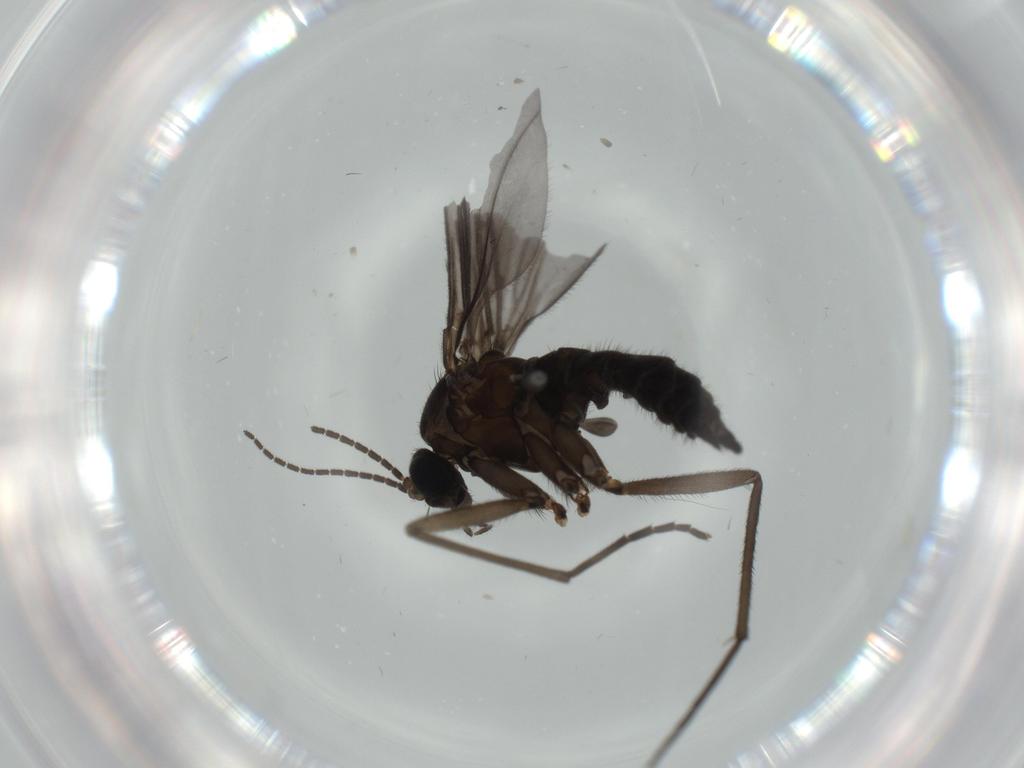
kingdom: Animalia
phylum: Arthropoda
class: Insecta
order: Diptera
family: Sciaridae
